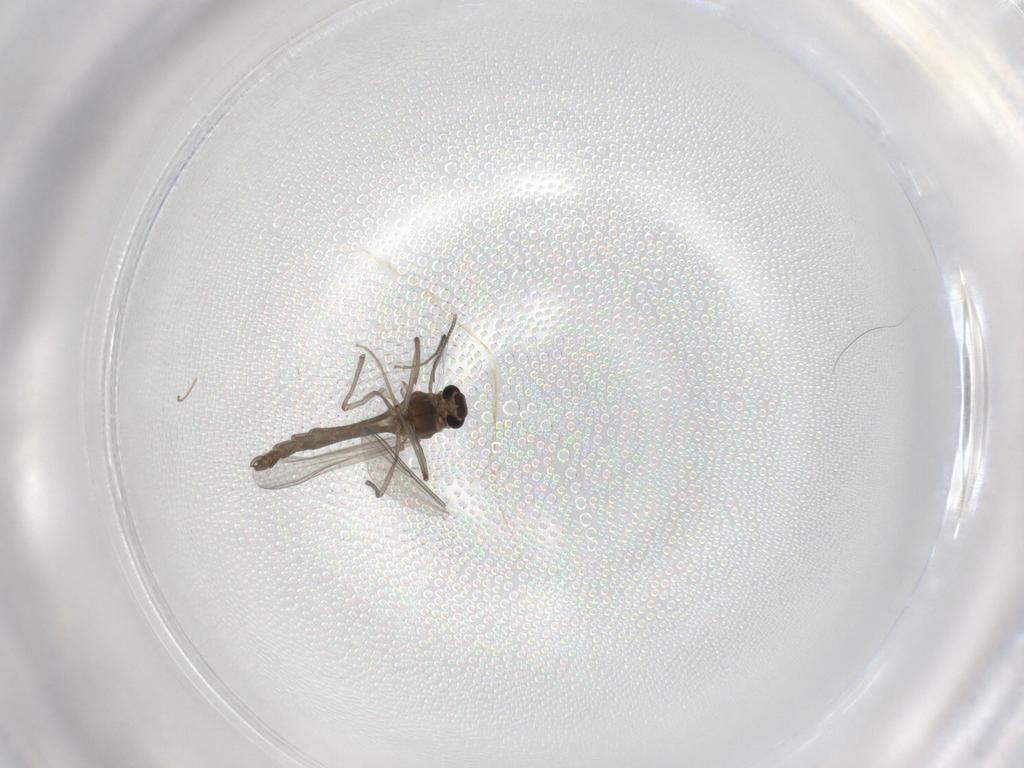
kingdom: Animalia
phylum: Arthropoda
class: Insecta
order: Diptera
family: Chironomidae
